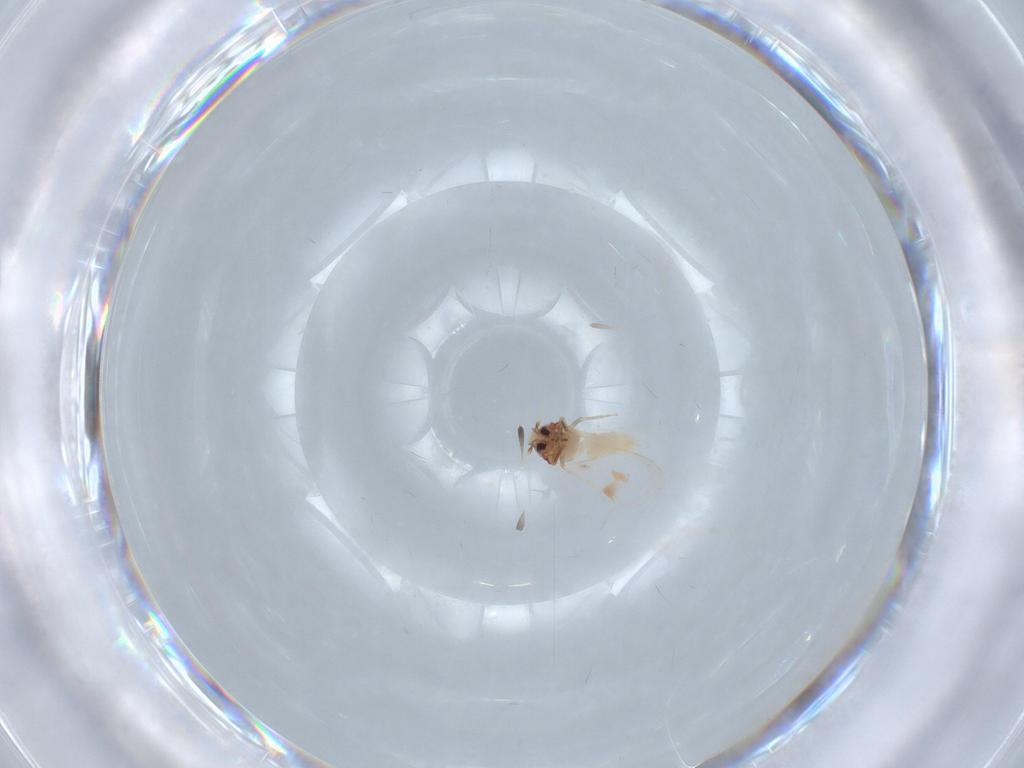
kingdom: Animalia
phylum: Arthropoda
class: Insecta
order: Hemiptera
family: Aleyrodidae
